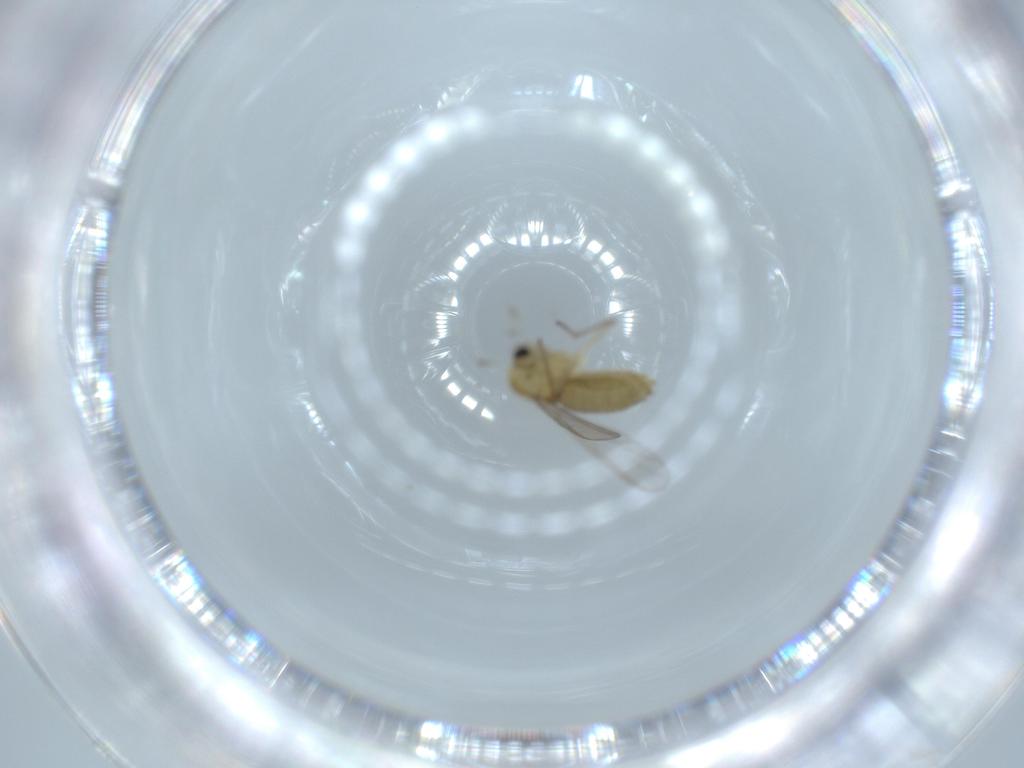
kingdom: Animalia
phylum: Arthropoda
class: Insecta
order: Diptera
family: Chironomidae
